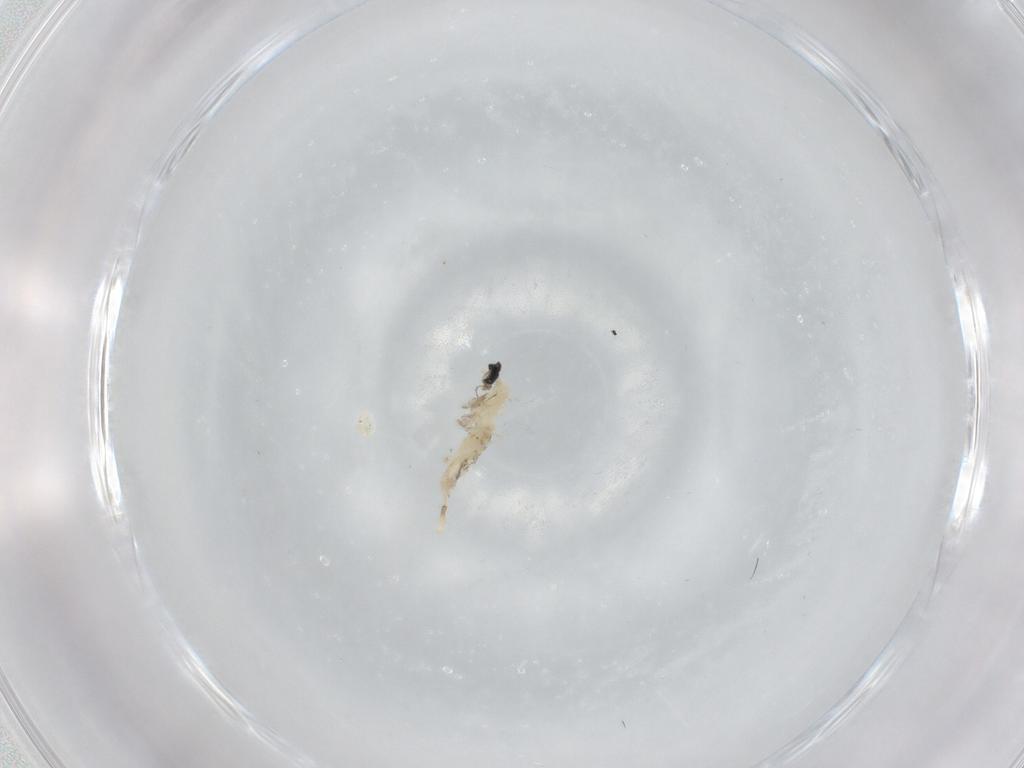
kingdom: Animalia
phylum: Arthropoda
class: Insecta
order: Diptera
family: Cecidomyiidae
